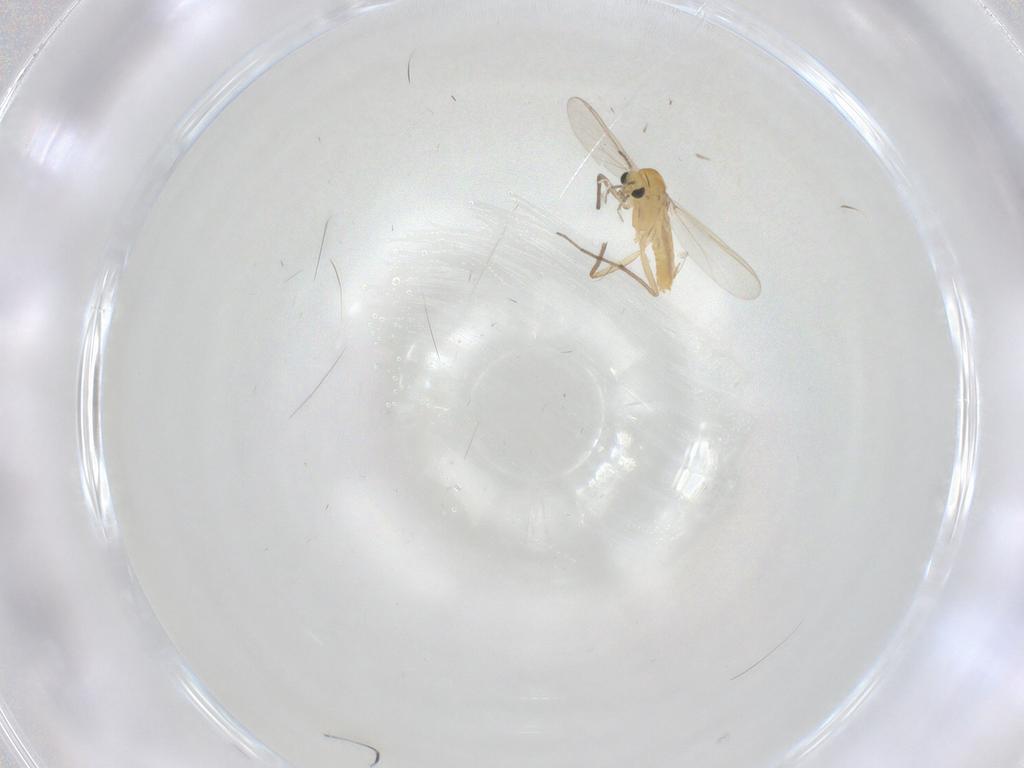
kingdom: Animalia
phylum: Arthropoda
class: Insecta
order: Diptera
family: Chironomidae
